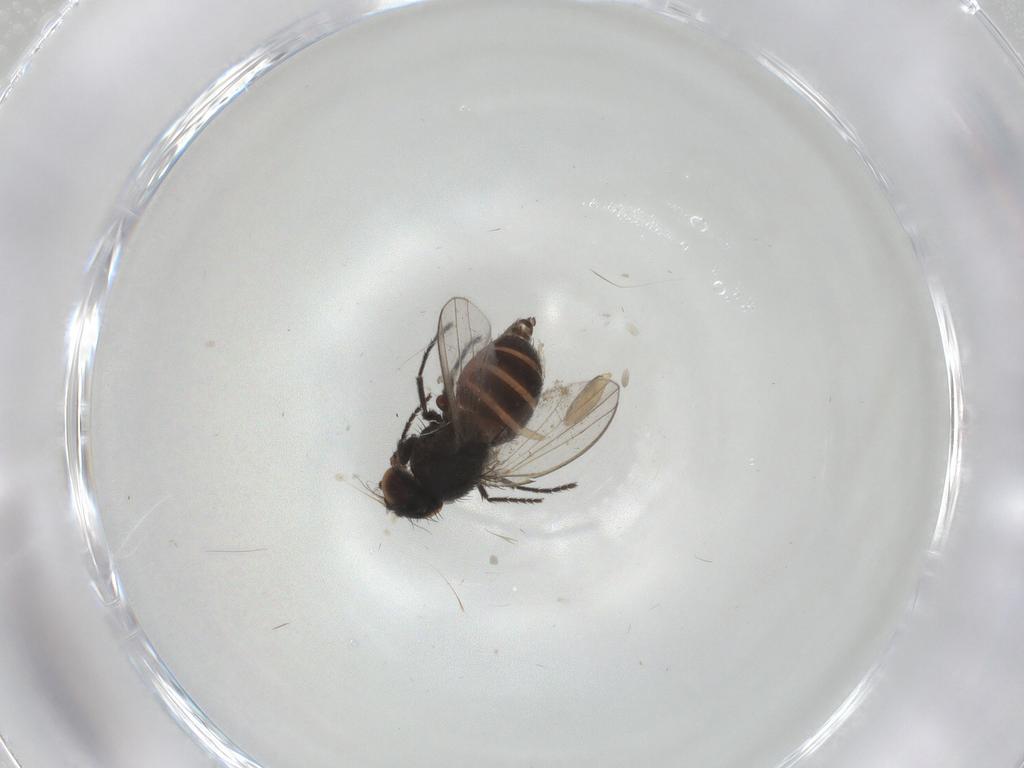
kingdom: Animalia
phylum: Arthropoda
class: Insecta
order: Diptera
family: Phoridae
